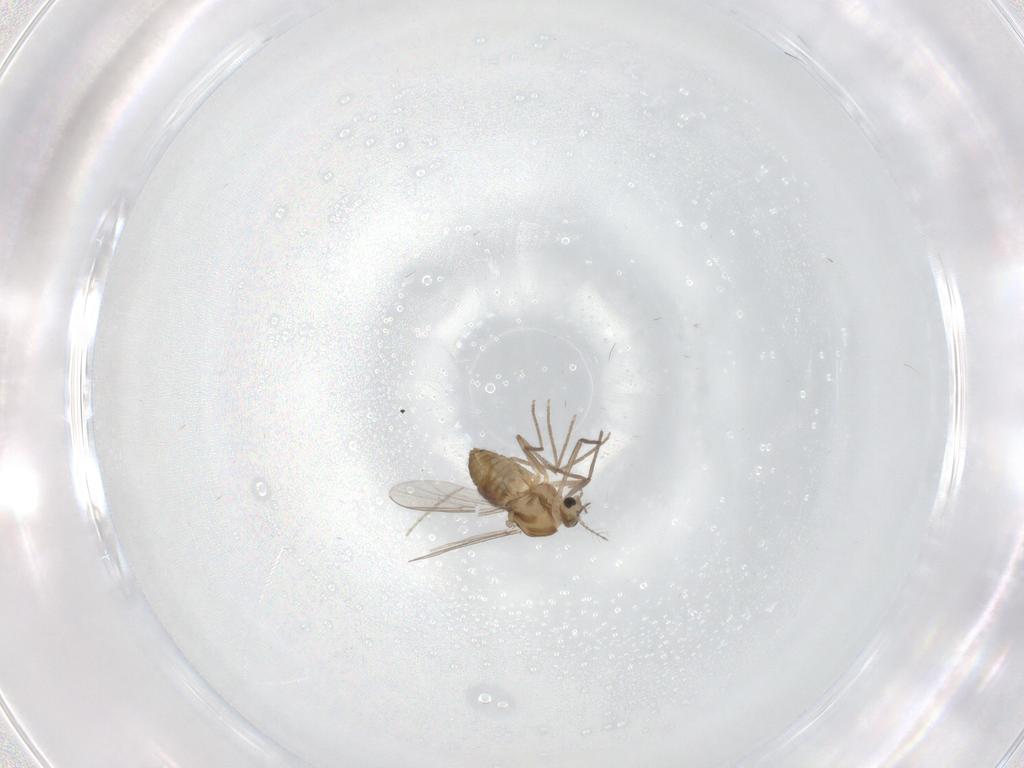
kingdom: Animalia
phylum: Arthropoda
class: Insecta
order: Diptera
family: Chironomidae
